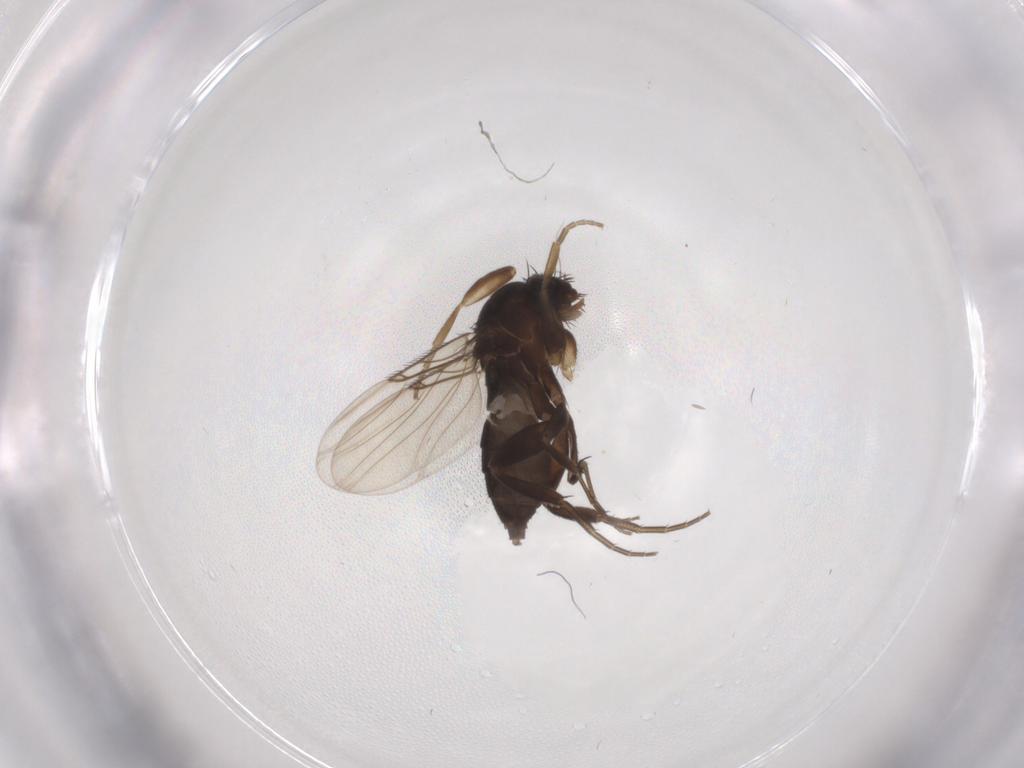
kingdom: Animalia
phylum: Arthropoda
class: Insecta
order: Diptera
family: Phoridae
